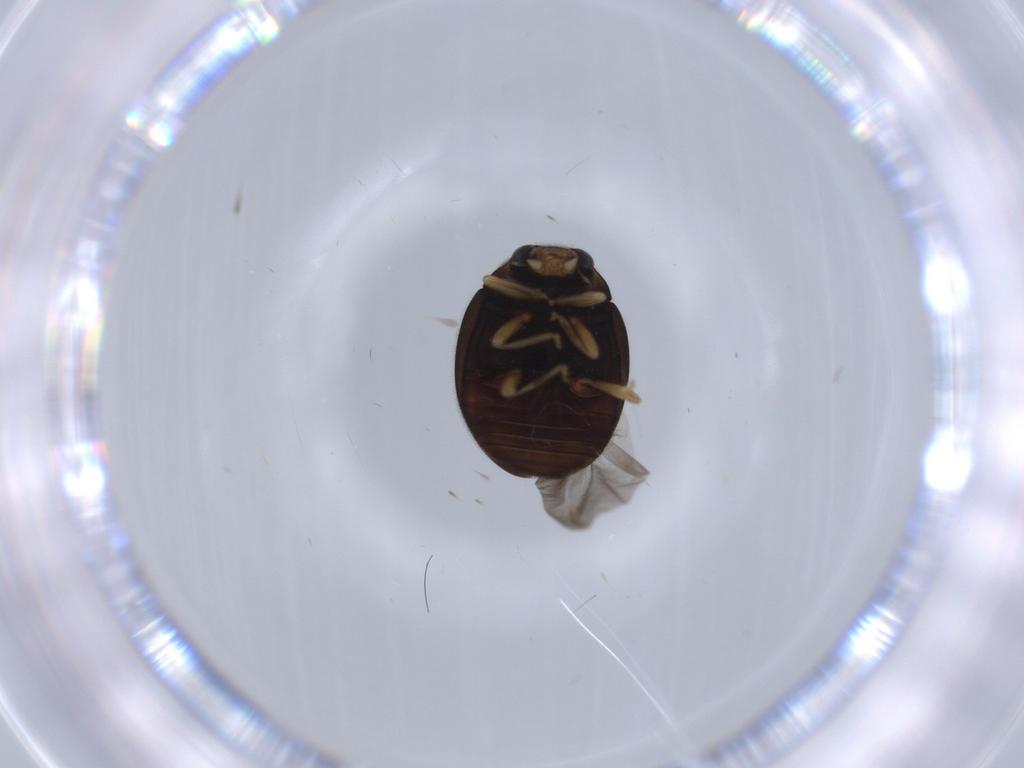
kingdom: Animalia
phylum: Arthropoda
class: Insecta
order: Coleoptera
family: Coccinellidae
